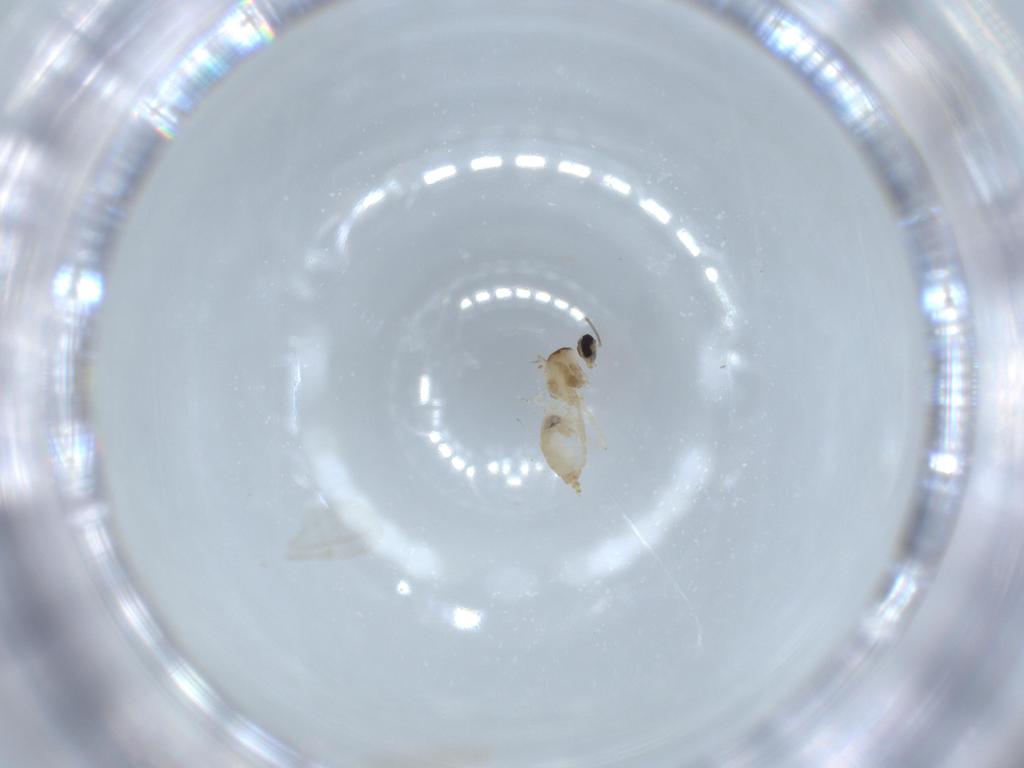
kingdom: Animalia
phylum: Arthropoda
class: Insecta
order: Diptera
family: Cecidomyiidae
